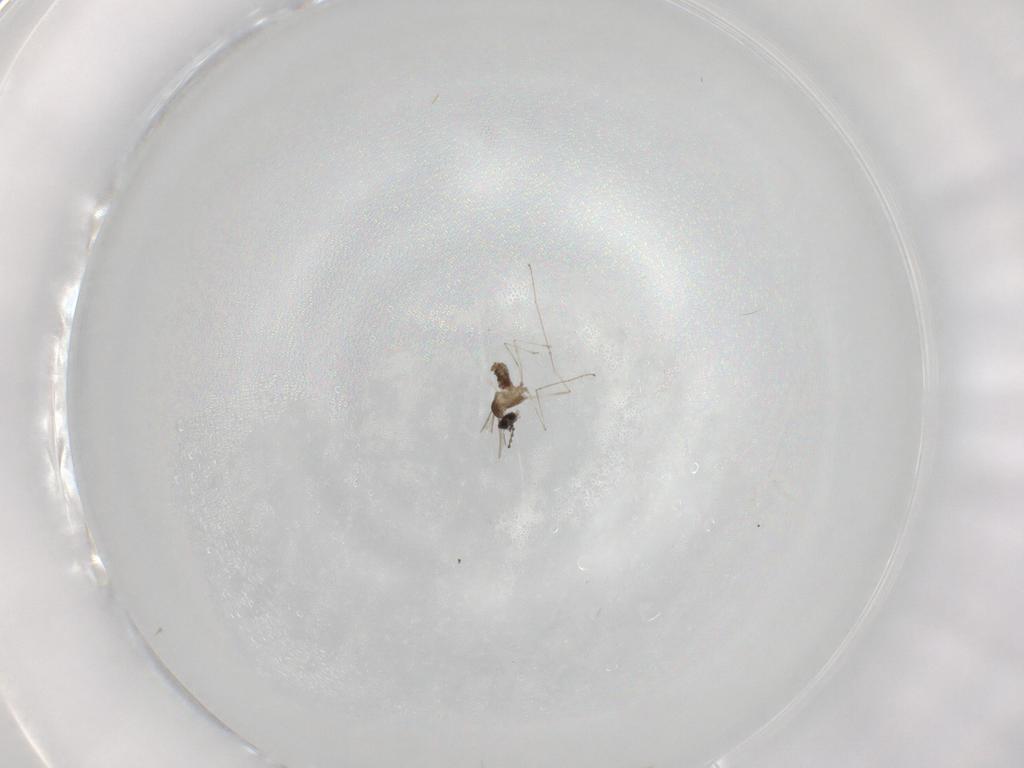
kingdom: Animalia
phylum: Arthropoda
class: Insecta
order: Diptera
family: Cecidomyiidae
